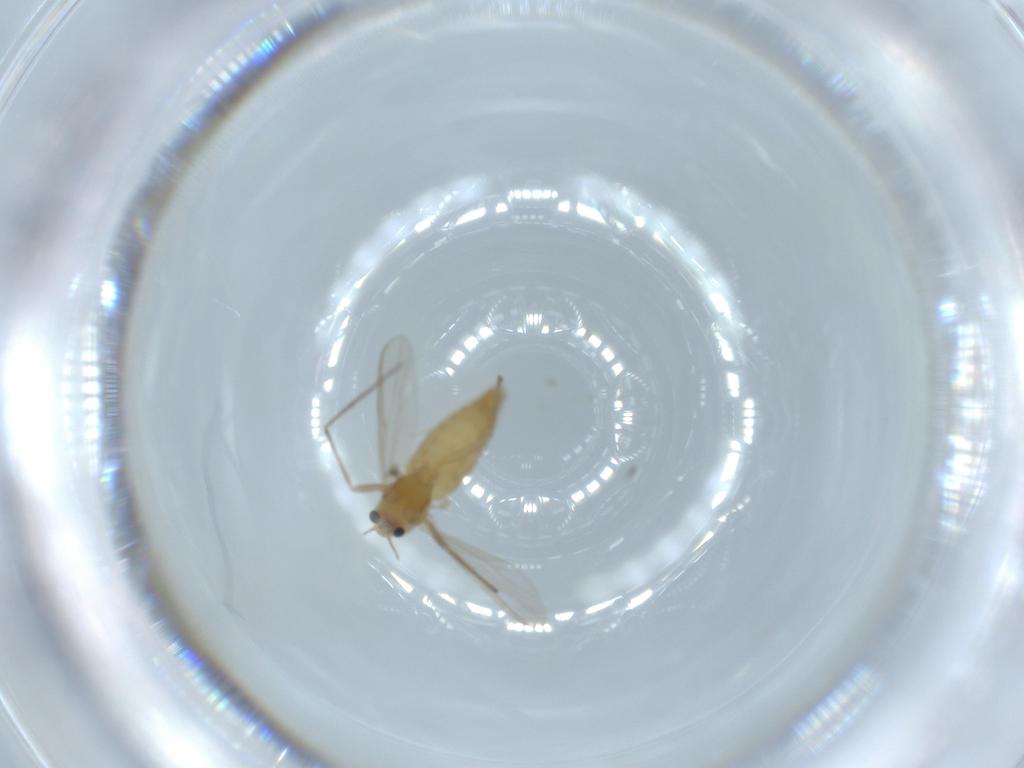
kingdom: Animalia
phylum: Arthropoda
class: Insecta
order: Diptera
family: Chironomidae
